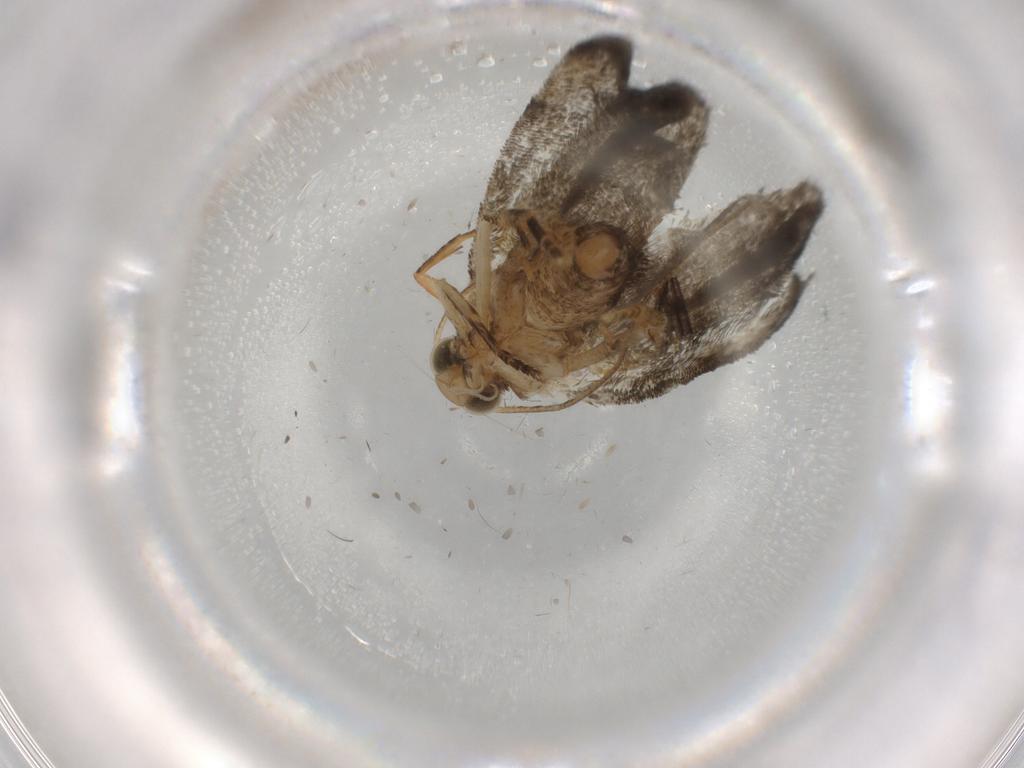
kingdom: Animalia
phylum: Arthropoda
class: Insecta
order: Lepidoptera
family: Tortricidae
